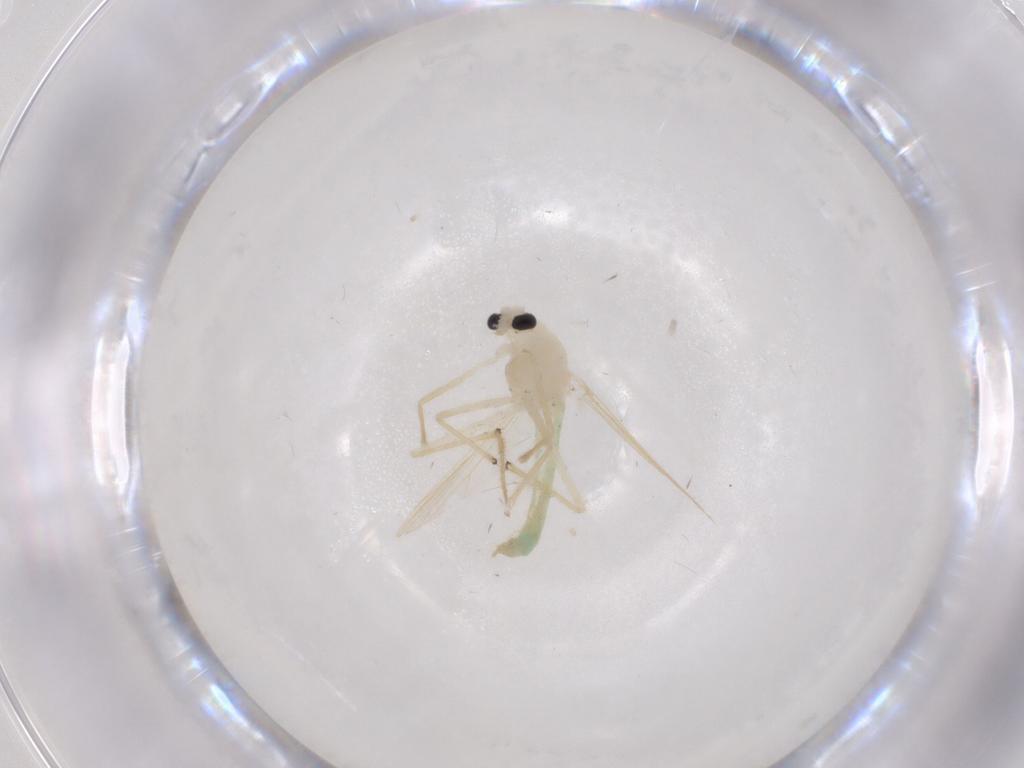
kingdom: Animalia
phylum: Arthropoda
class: Insecta
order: Diptera
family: Chironomidae
